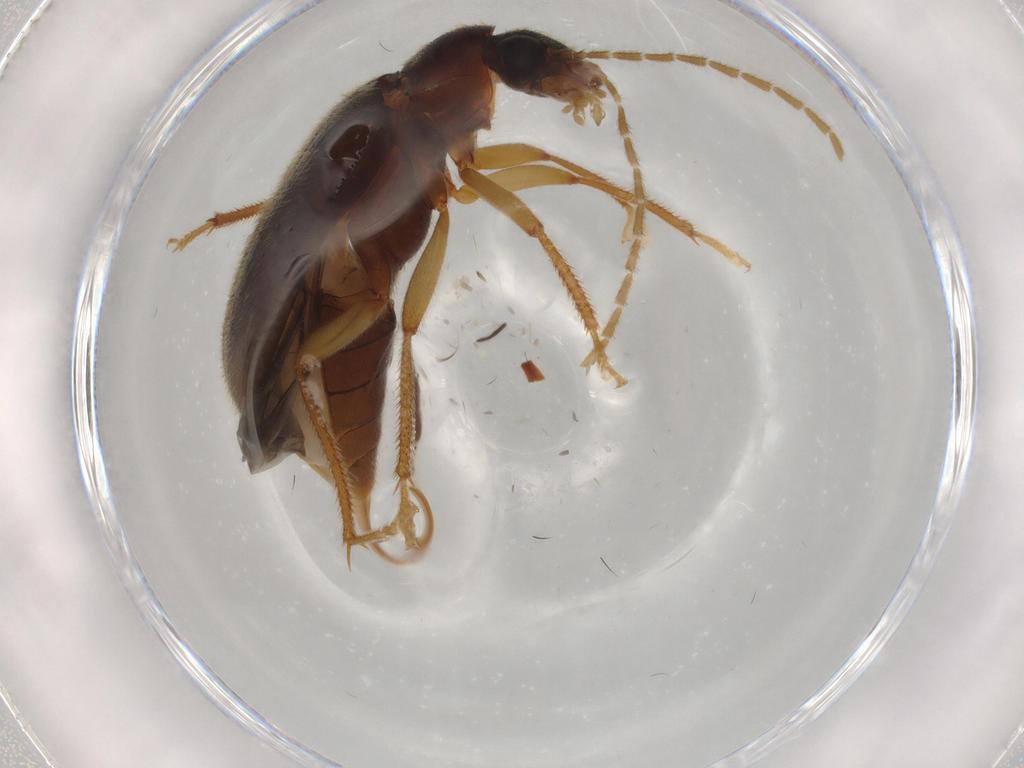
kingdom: Animalia
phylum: Arthropoda
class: Insecta
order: Coleoptera
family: Ptilodactylidae
